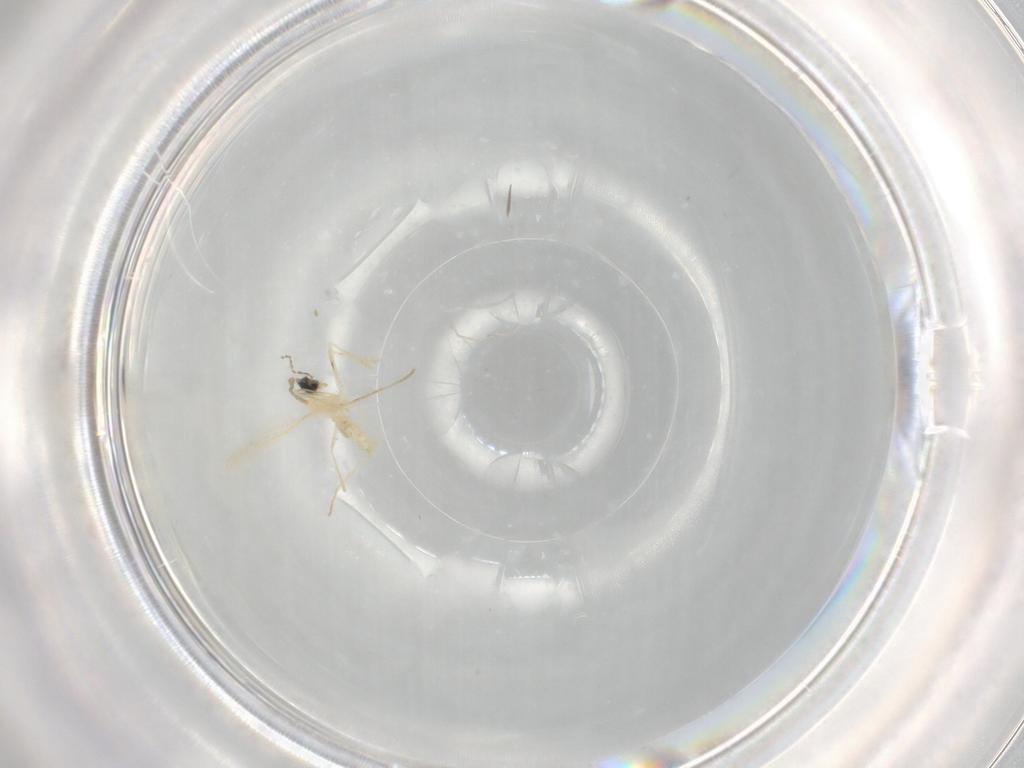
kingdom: Animalia
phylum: Arthropoda
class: Insecta
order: Diptera
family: Cecidomyiidae
